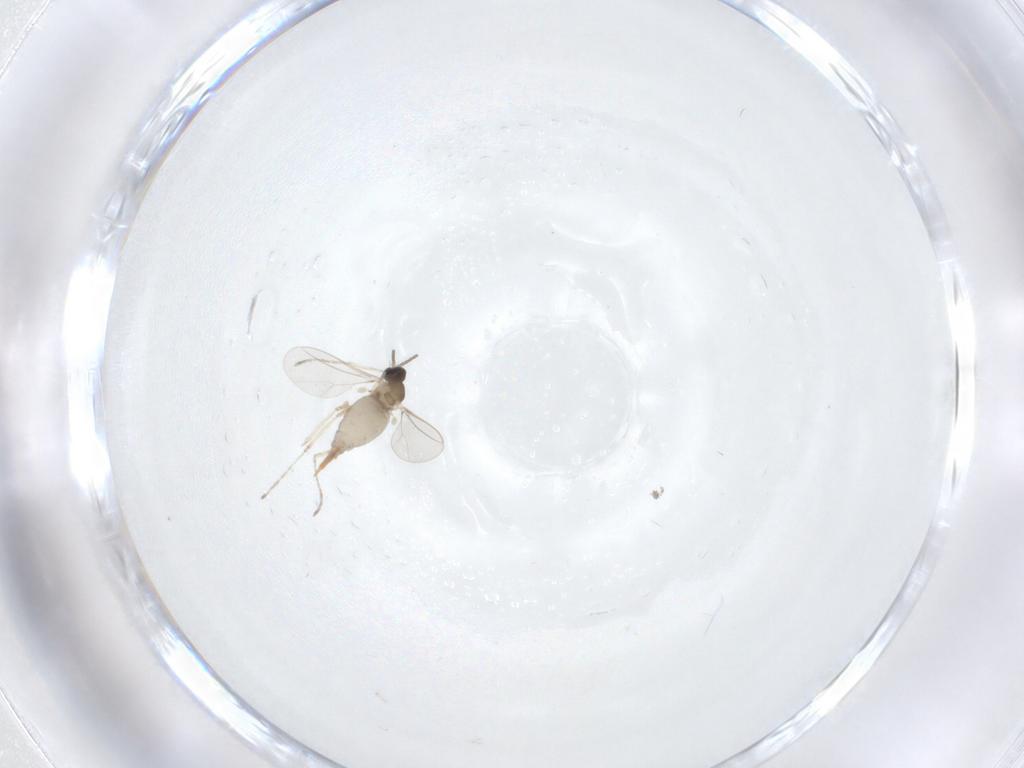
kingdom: Animalia
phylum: Arthropoda
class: Insecta
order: Diptera
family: Cecidomyiidae
